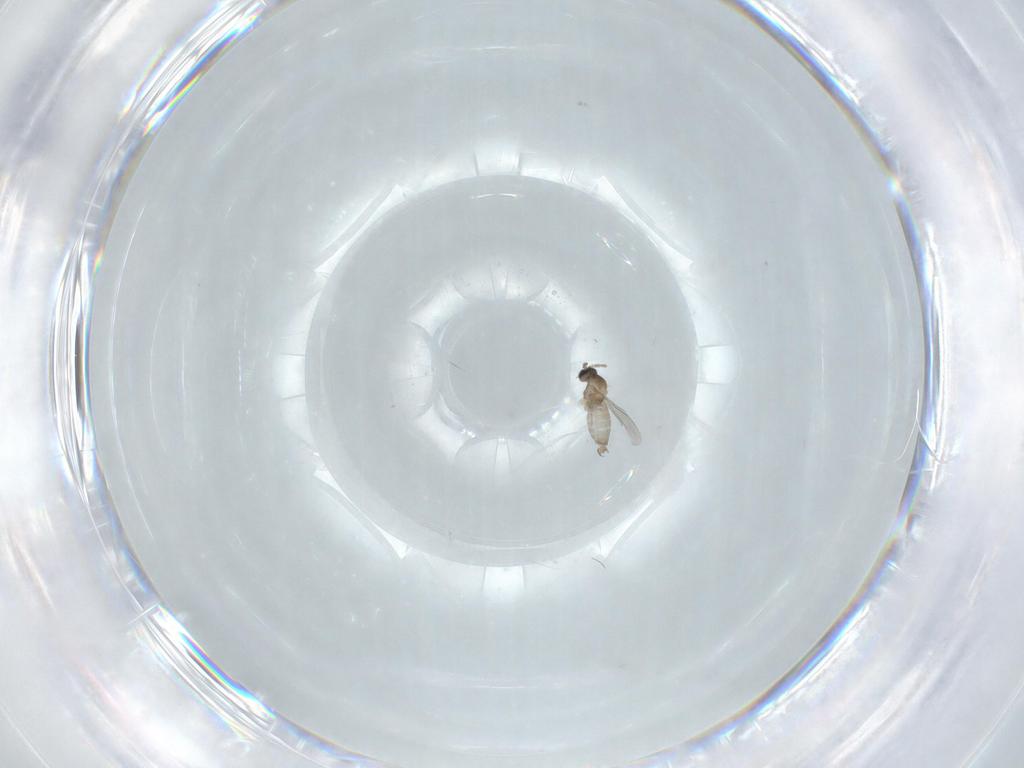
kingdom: Animalia
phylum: Arthropoda
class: Insecta
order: Diptera
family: Cecidomyiidae
